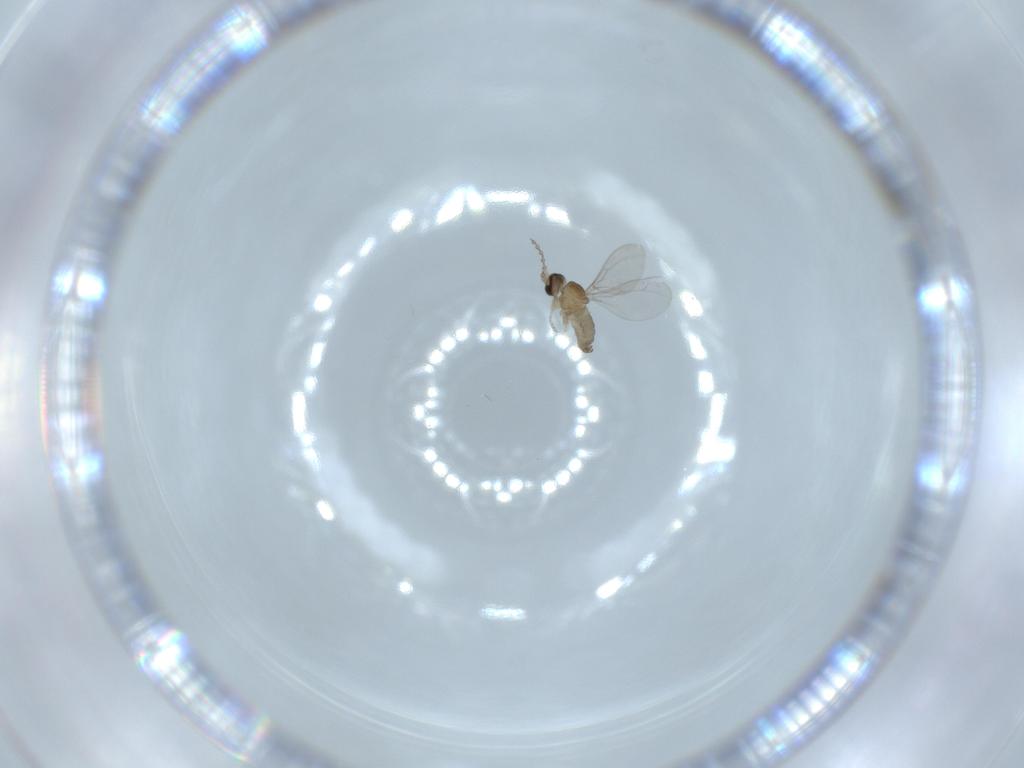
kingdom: Animalia
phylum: Arthropoda
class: Insecta
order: Diptera
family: Cecidomyiidae
